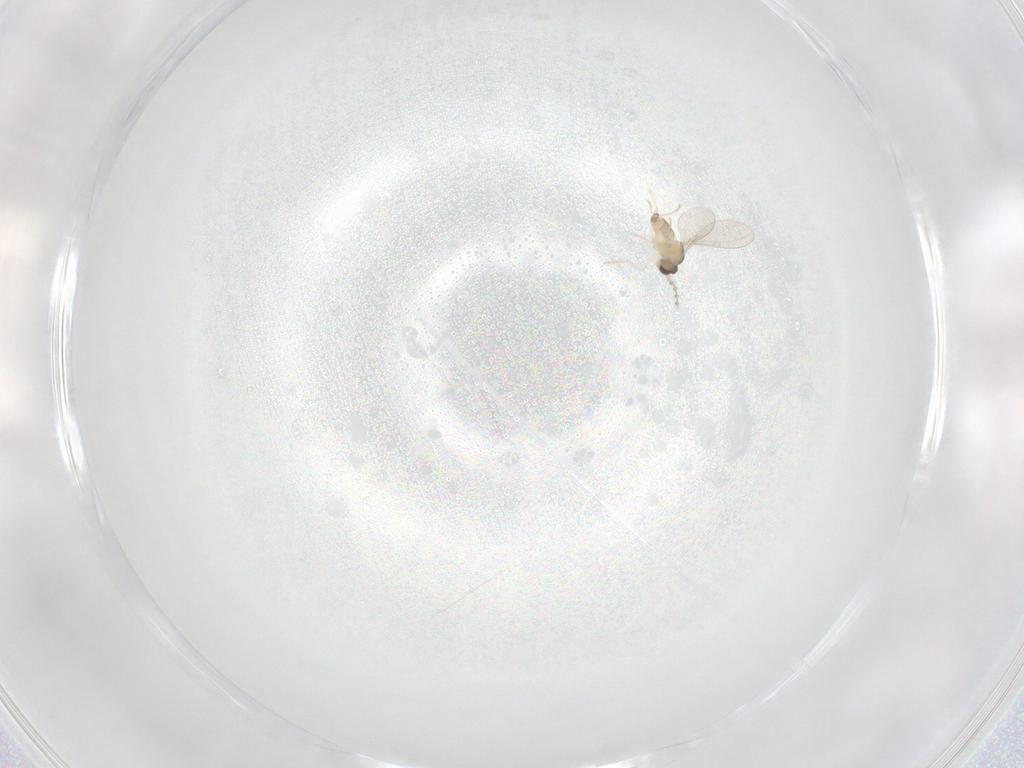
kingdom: Animalia
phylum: Arthropoda
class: Insecta
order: Diptera
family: Cecidomyiidae
